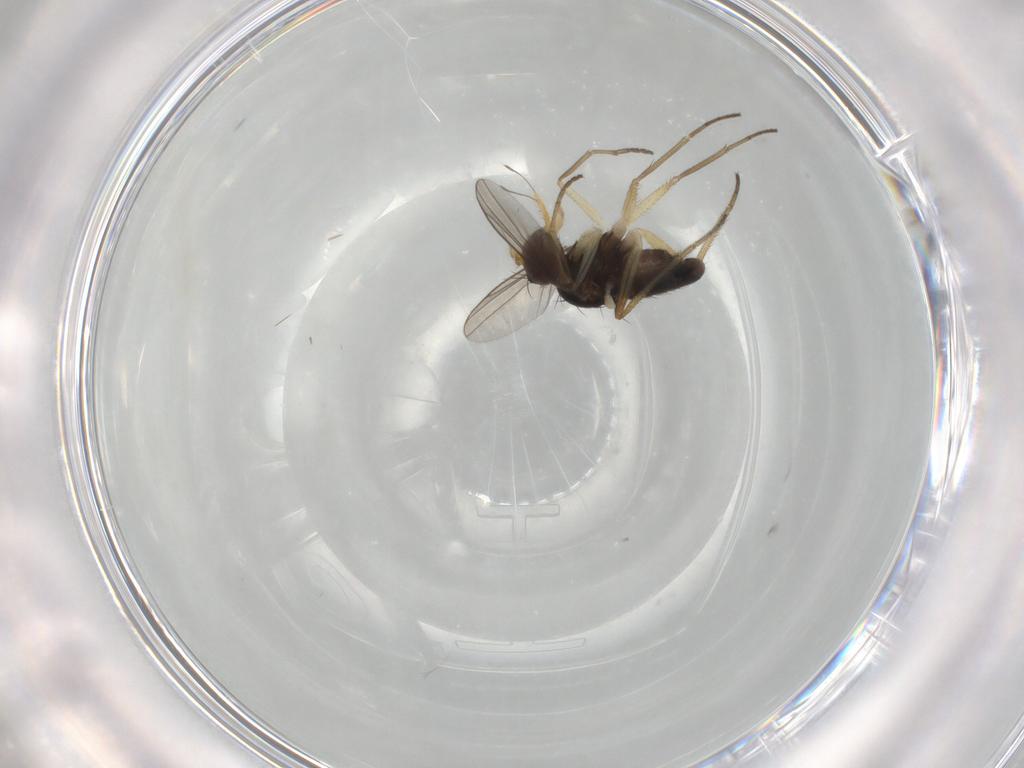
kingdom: Animalia
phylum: Arthropoda
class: Insecta
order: Diptera
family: Dolichopodidae
